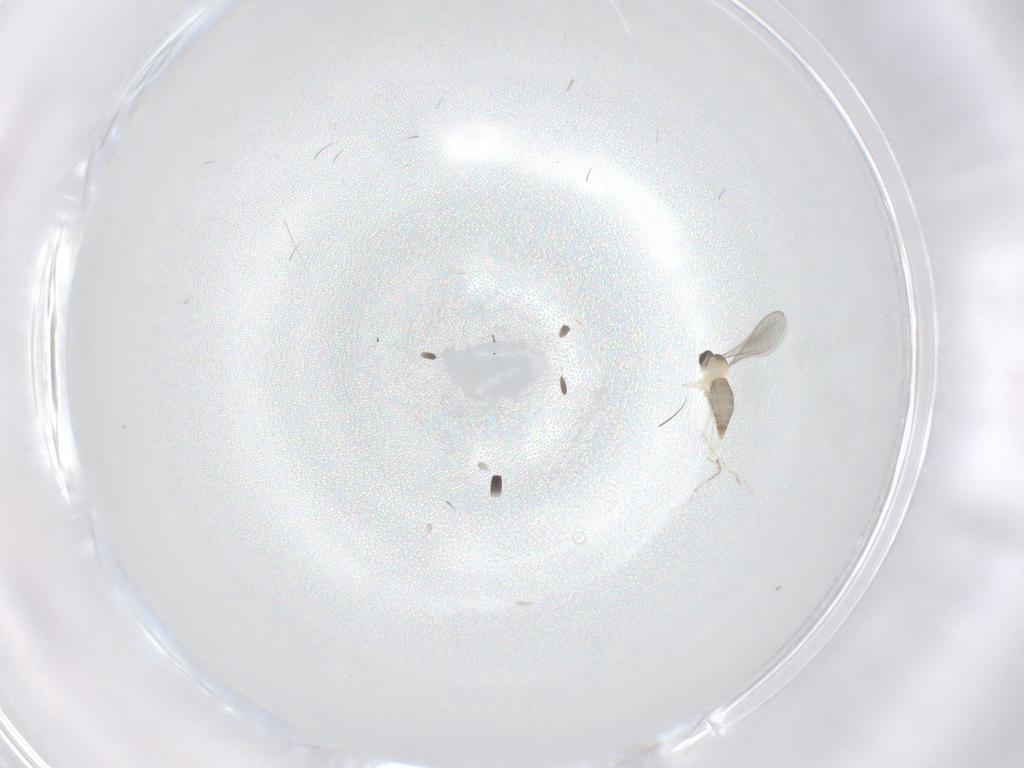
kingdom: Animalia
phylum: Arthropoda
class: Insecta
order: Diptera
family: Cecidomyiidae
